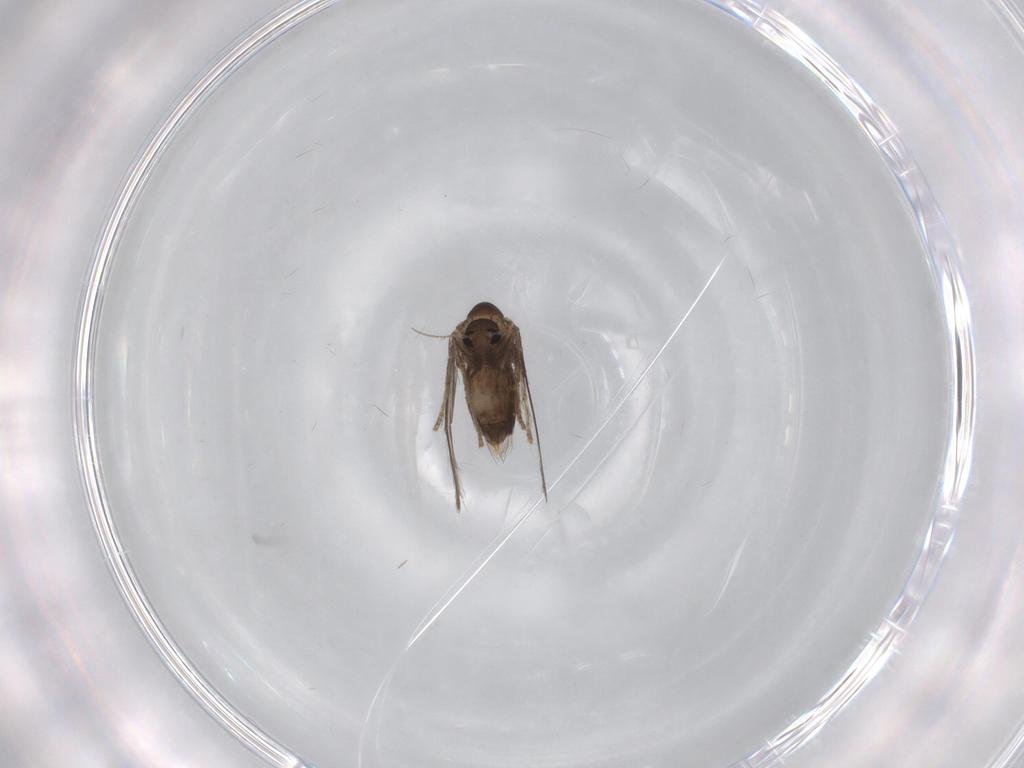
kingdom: Animalia
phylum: Arthropoda
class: Insecta
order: Diptera
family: Psychodidae
